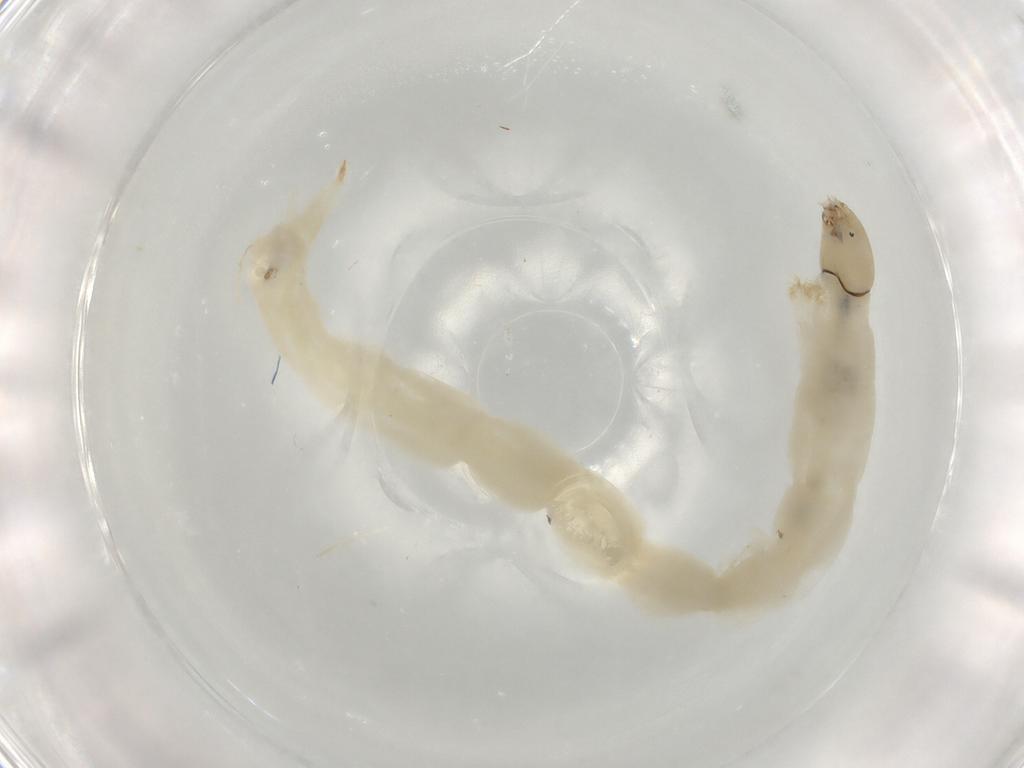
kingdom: Animalia
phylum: Arthropoda
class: Insecta
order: Diptera
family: Chironomidae
